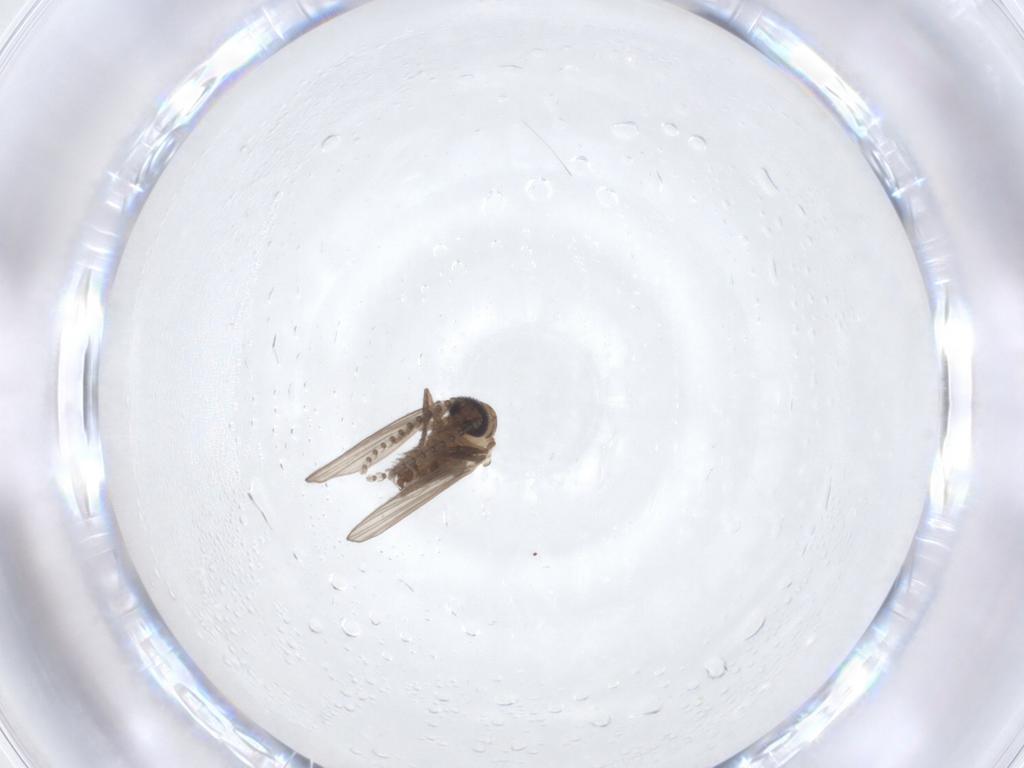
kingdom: Animalia
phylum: Arthropoda
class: Insecta
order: Diptera
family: Psychodidae
